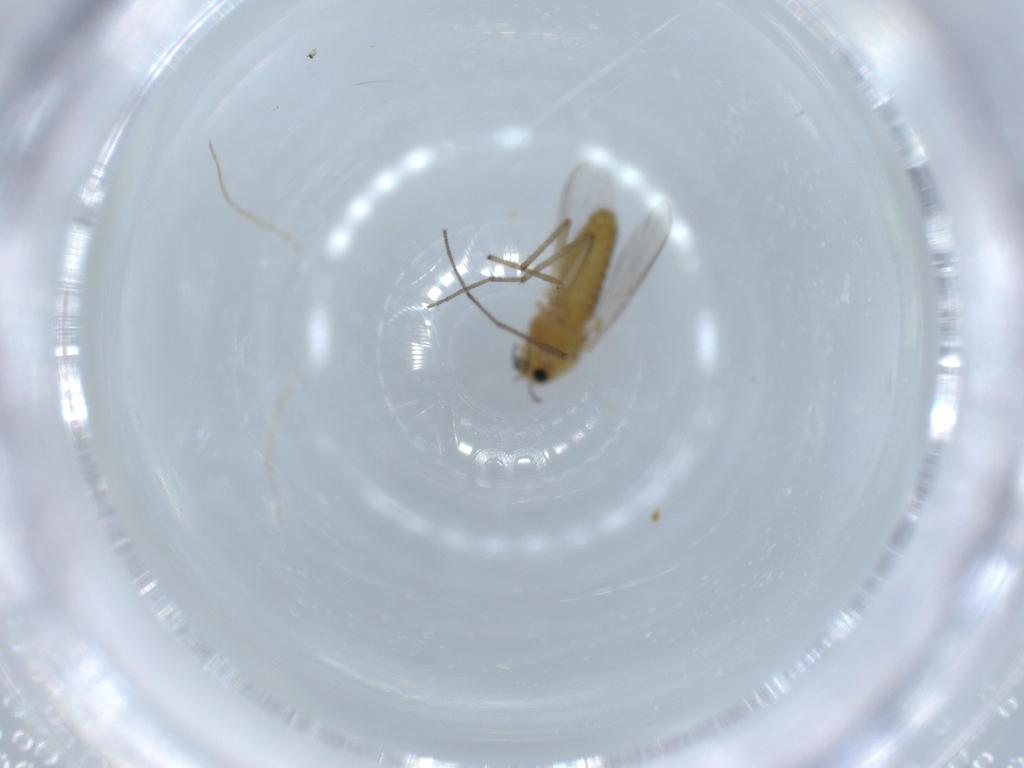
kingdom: Animalia
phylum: Arthropoda
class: Insecta
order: Diptera
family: Chironomidae
